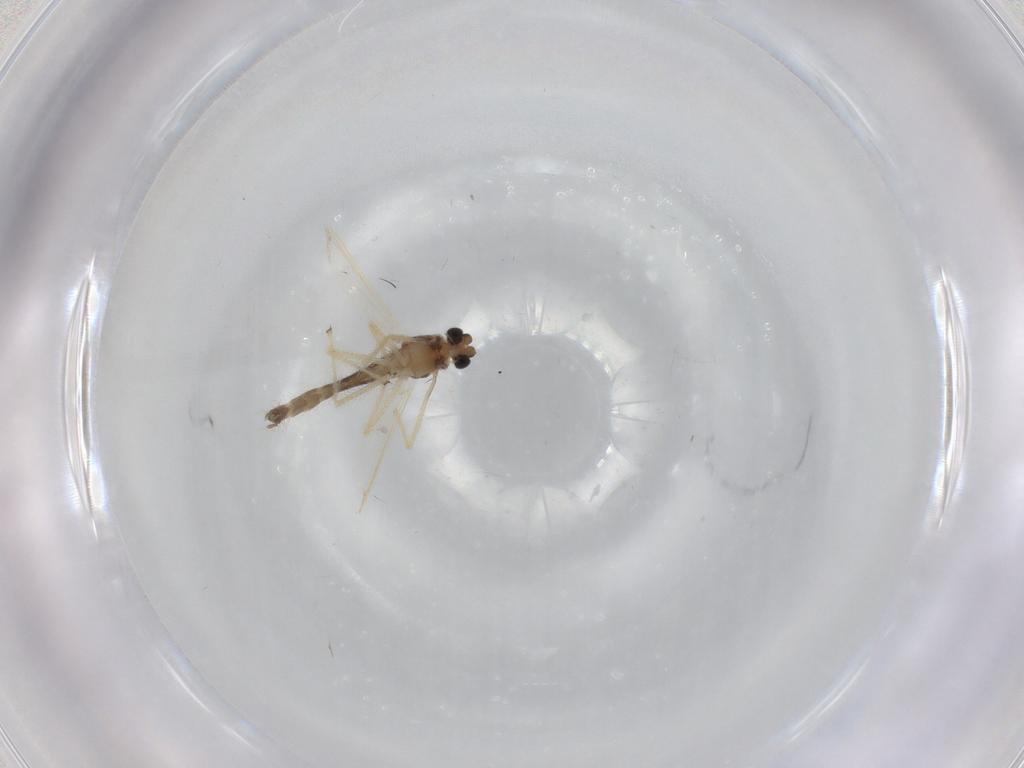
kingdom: Animalia
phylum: Arthropoda
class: Insecta
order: Diptera
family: Chironomidae
